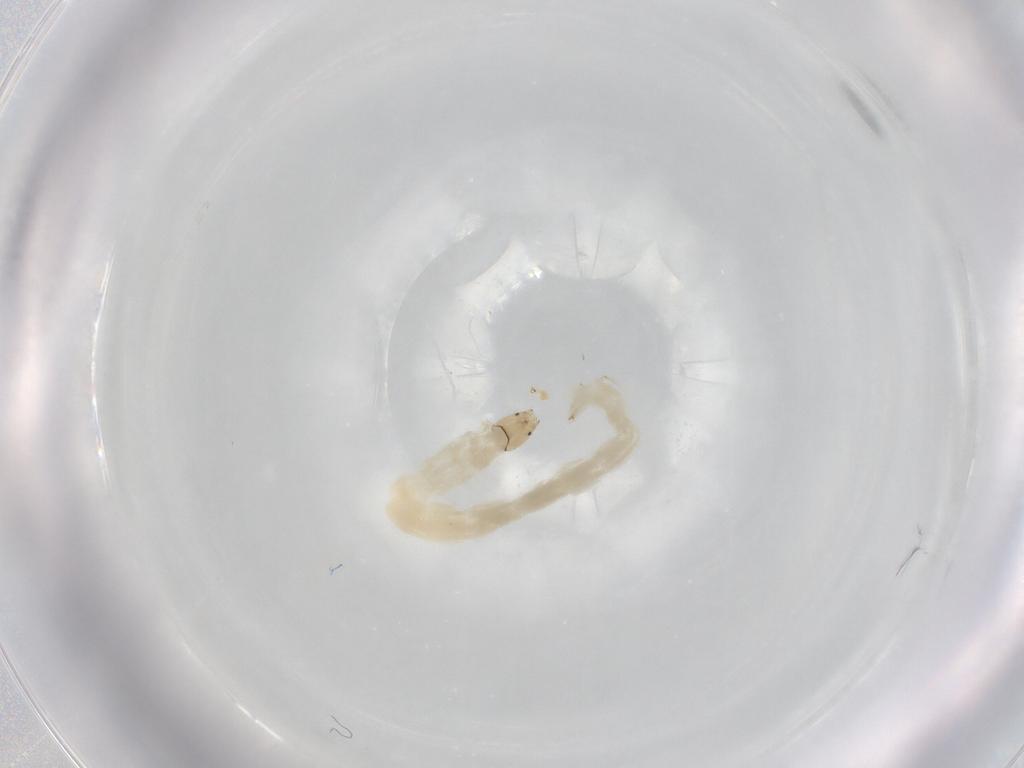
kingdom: Animalia
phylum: Arthropoda
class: Insecta
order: Diptera
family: Chironomidae
